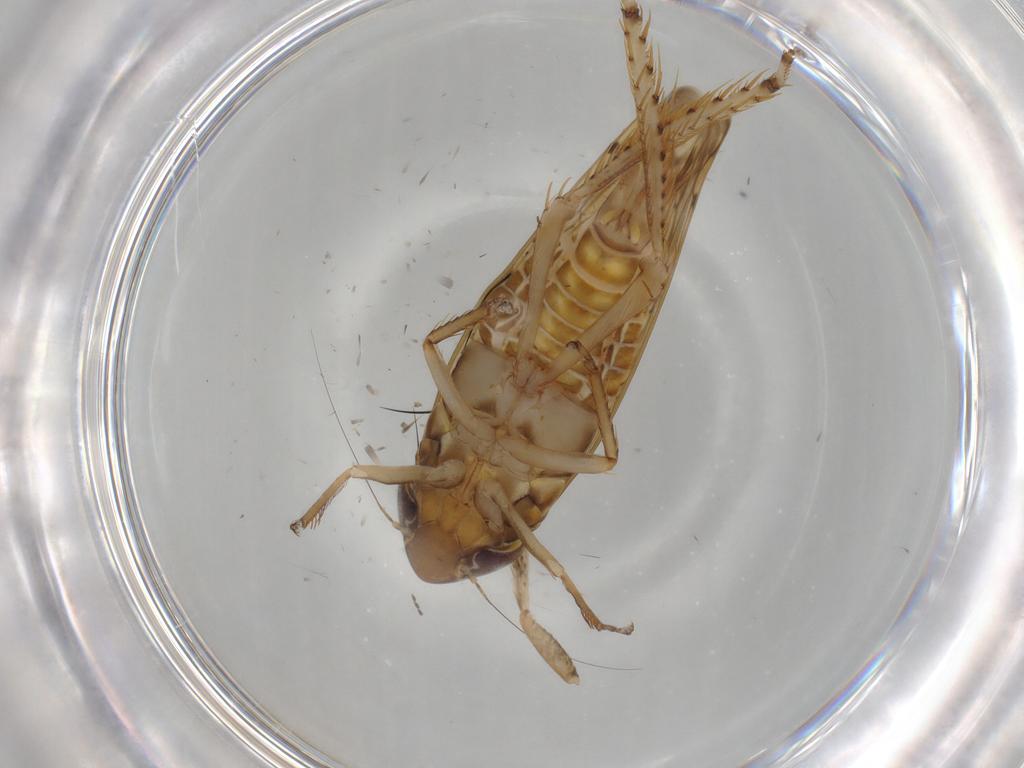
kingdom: Animalia
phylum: Arthropoda
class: Insecta
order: Hemiptera
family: Cicadellidae
